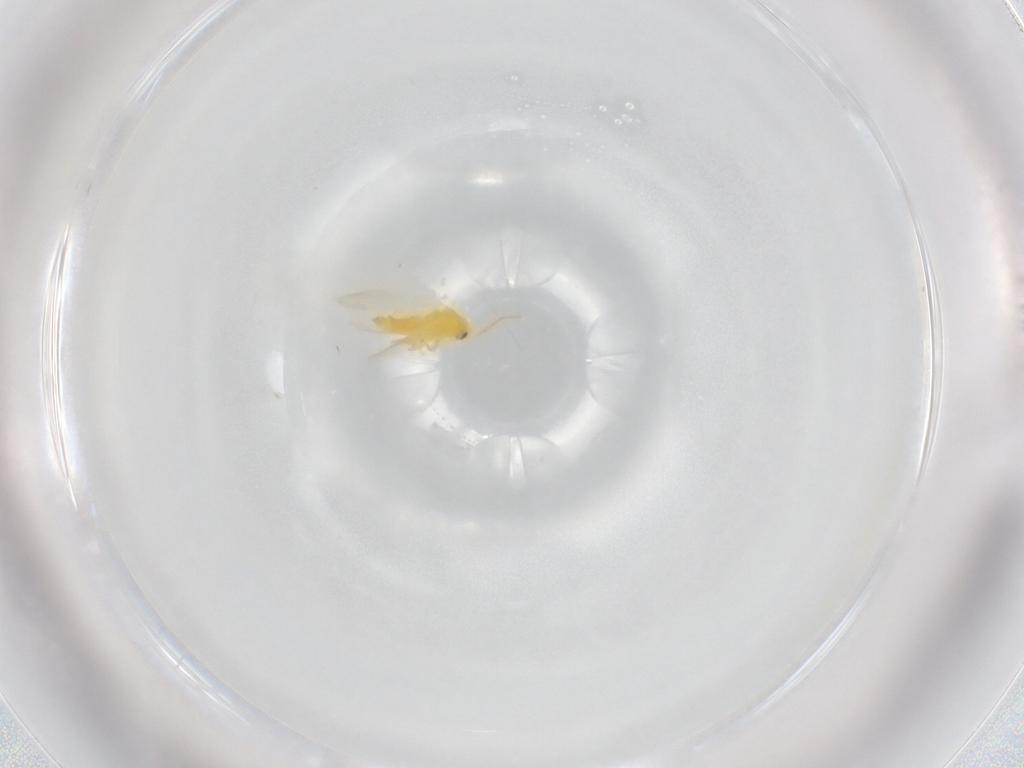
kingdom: Animalia
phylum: Arthropoda
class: Insecta
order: Hemiptera
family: Aleyrodidae
